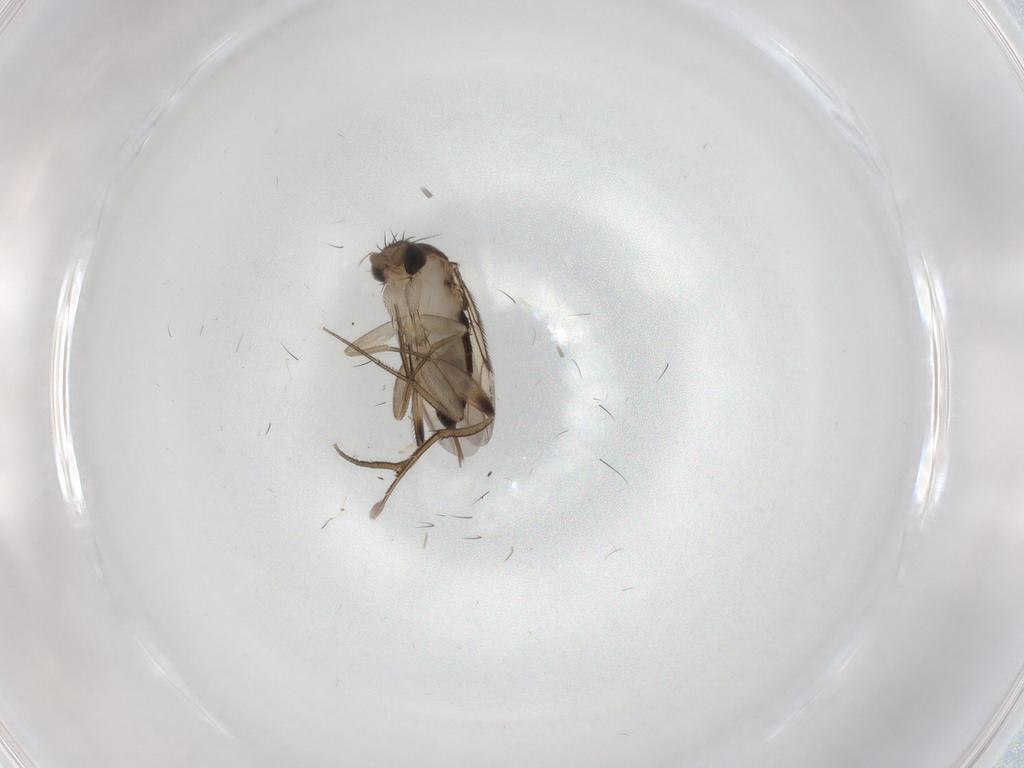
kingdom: Animalia
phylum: Arthropoda
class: Insecta
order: Diptera
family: Phoridae
